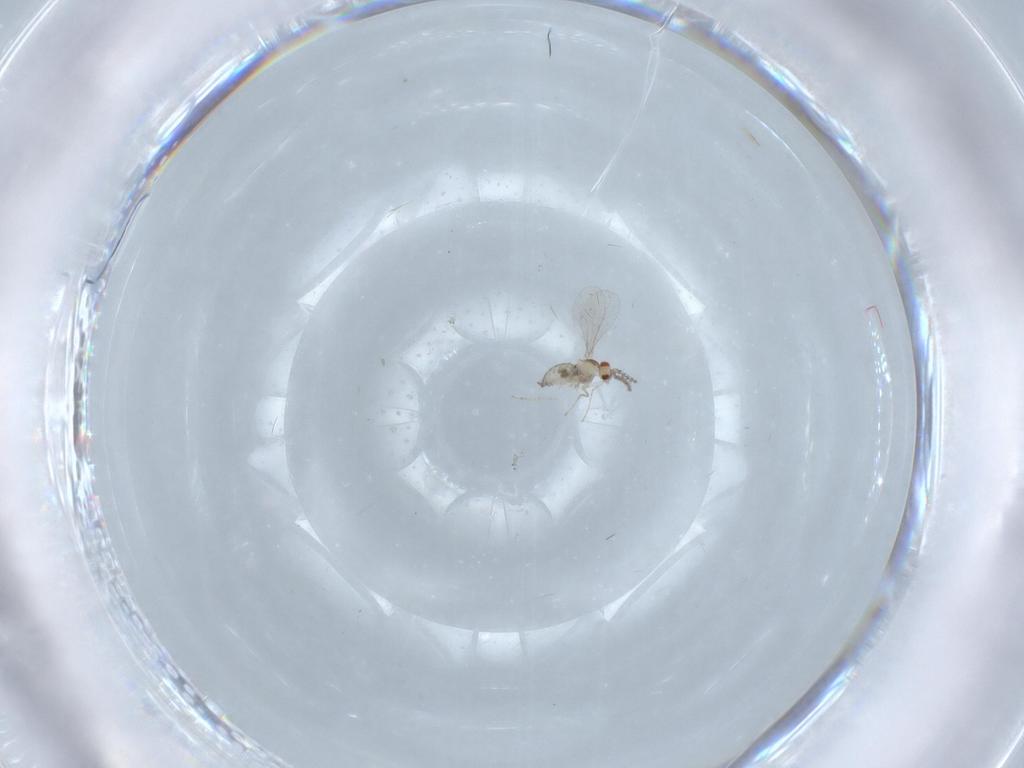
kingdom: Animalia
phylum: Arthropoda
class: Insecta
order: Diptera
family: Cecidomyiidae
